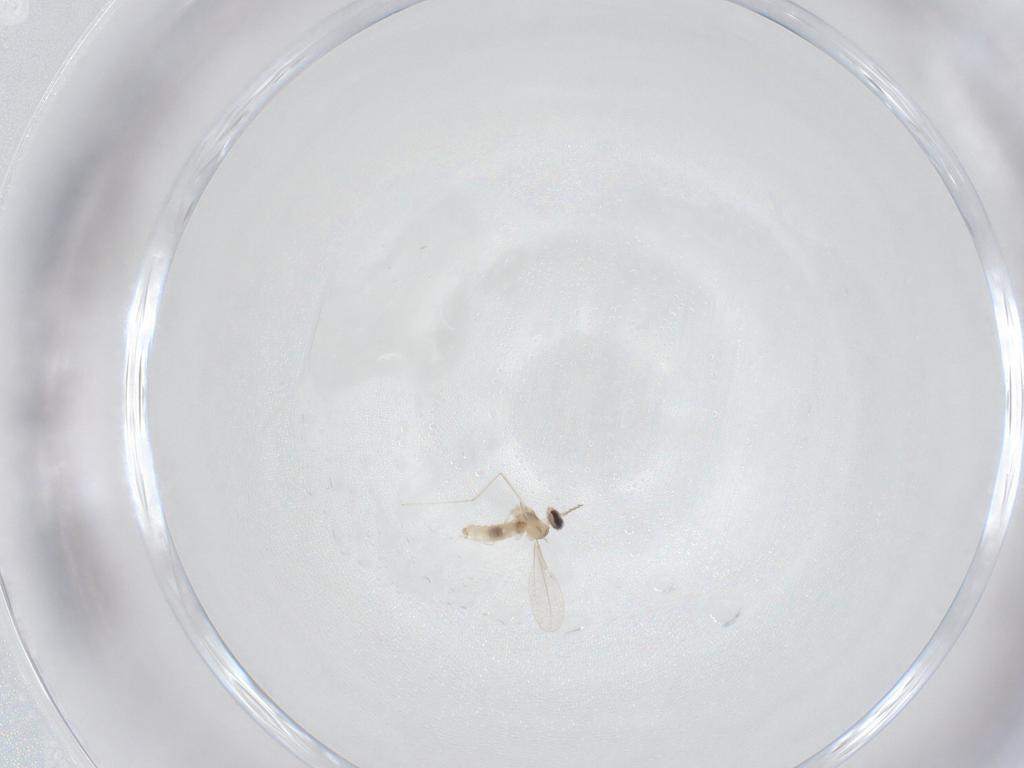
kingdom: Animalia
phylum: Arthropoda
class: Insecta
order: Diptera
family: Cecidomyiidae
